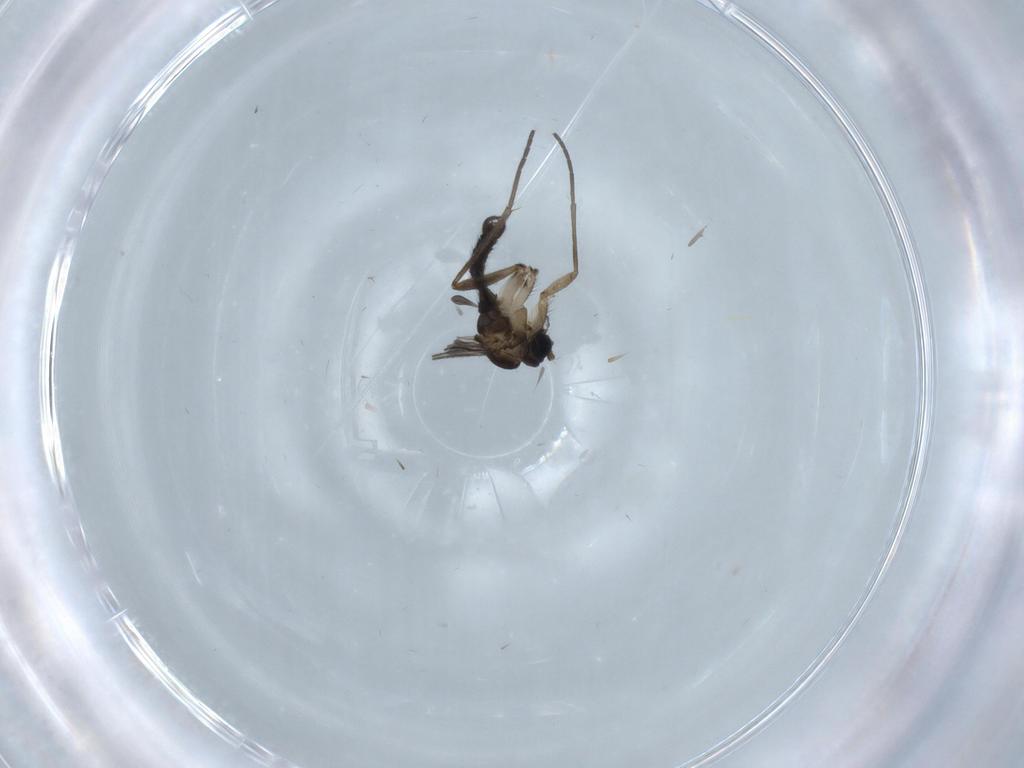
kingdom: Animalia
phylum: Arthropoda
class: Insecta
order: Diptera
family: Sciaridae
